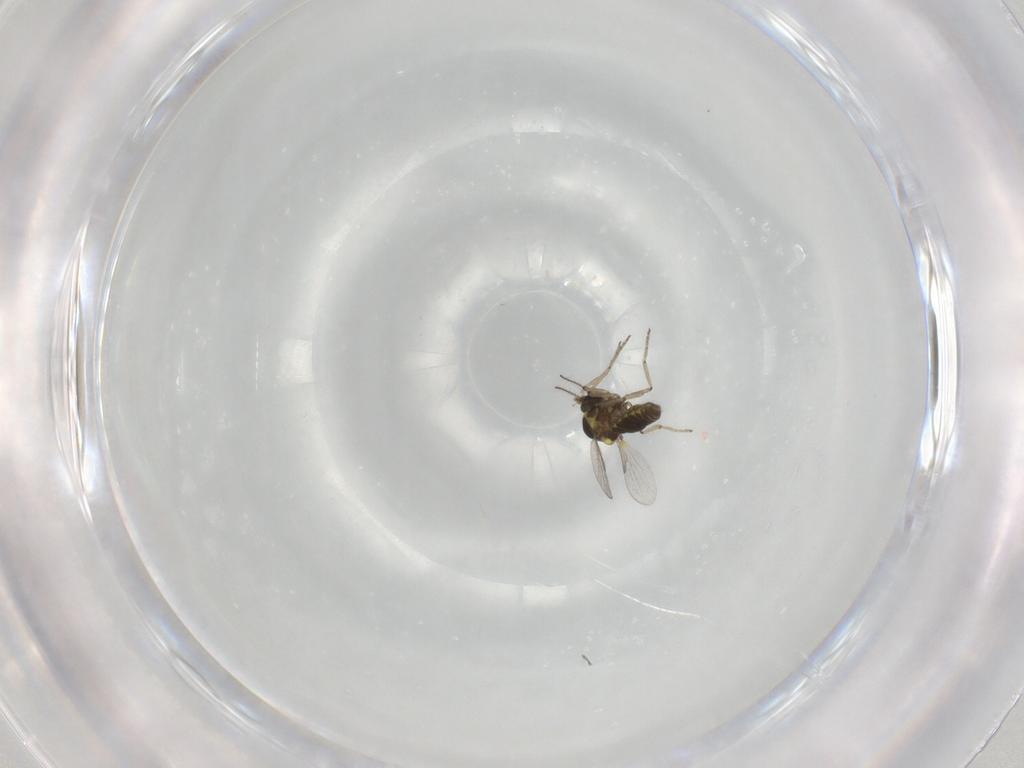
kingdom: Animalia
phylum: Arthropoda
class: Insecta
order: Diptera
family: Ceratopogonidae
